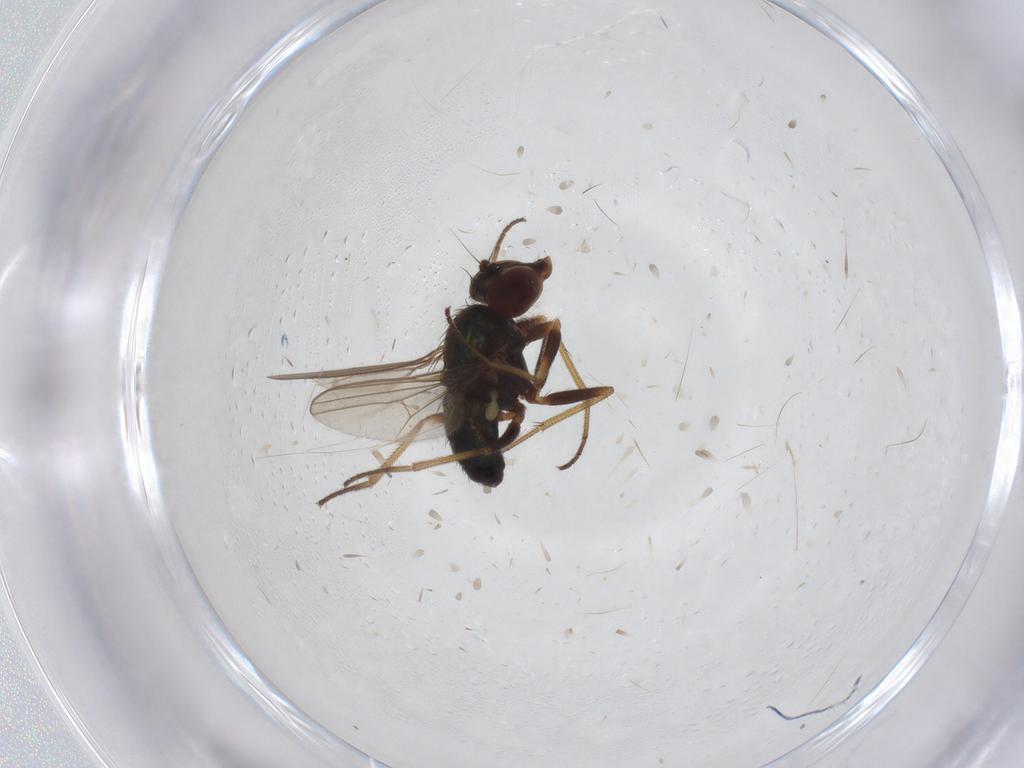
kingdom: Animalia
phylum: Arthropoda
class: Insecta
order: Diptera
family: Dolichopodidae
